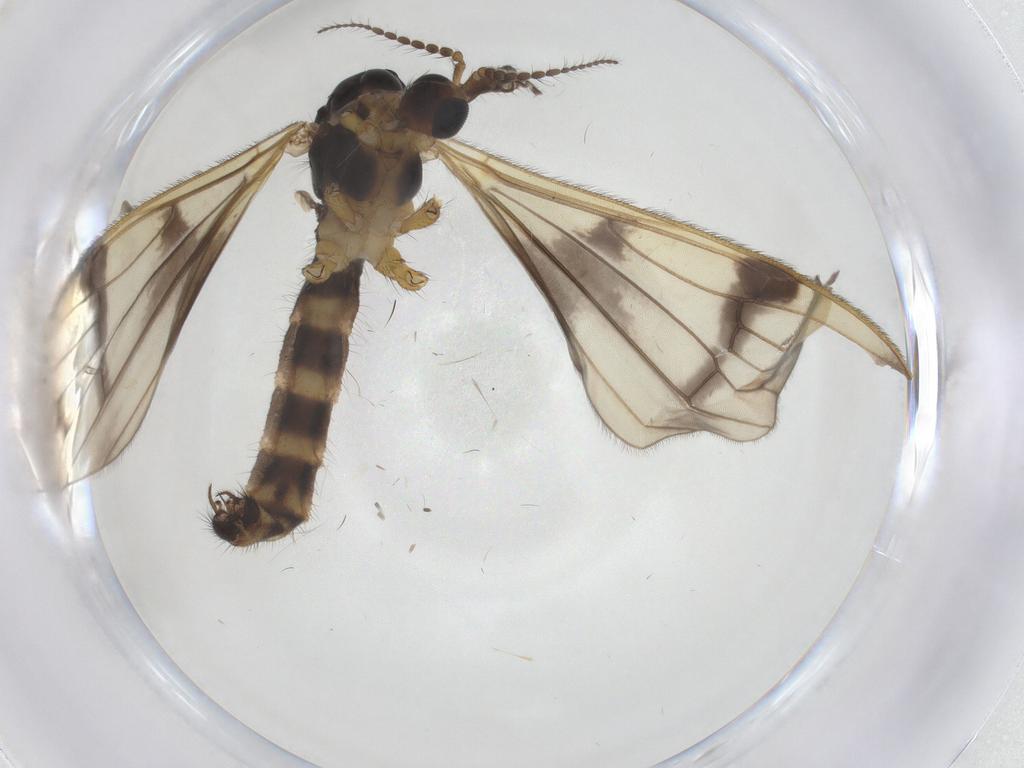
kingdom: Animalia
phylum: Arthropoda
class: Insecta
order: Diptera
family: Limoniidae
